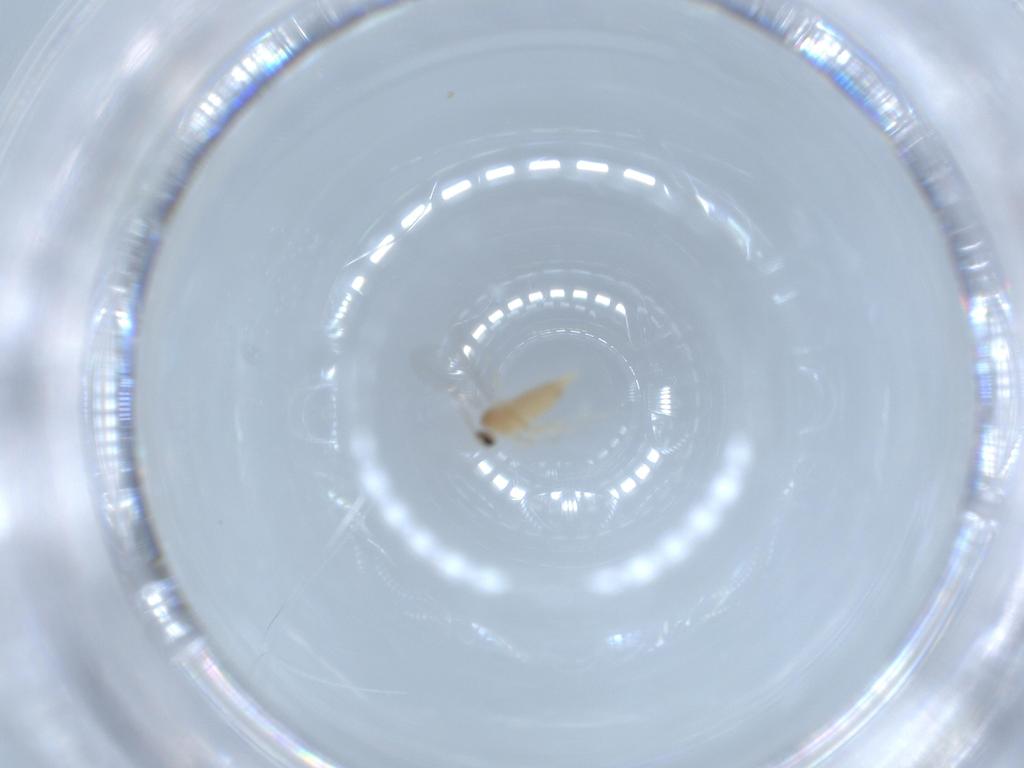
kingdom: Animalia
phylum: Arthropoda
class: Insecta
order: Diptera
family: Cecidomyiidae
